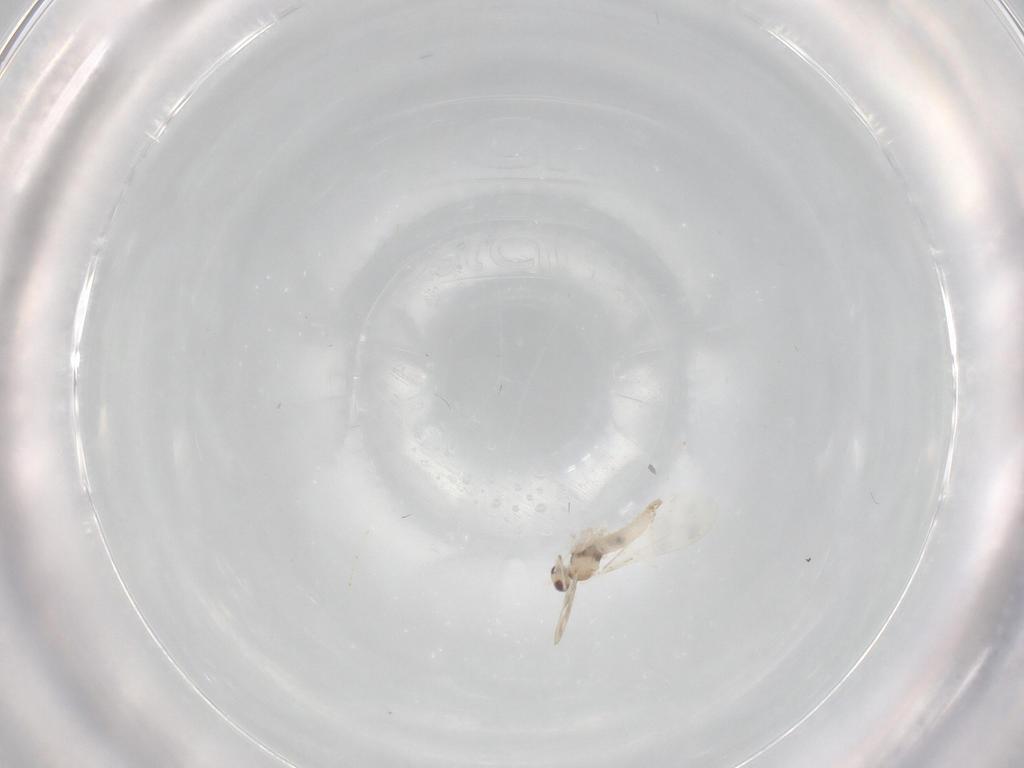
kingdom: Animalia
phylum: Arthropoda
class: Insecta
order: Diptera
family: Cecidomyiidae
